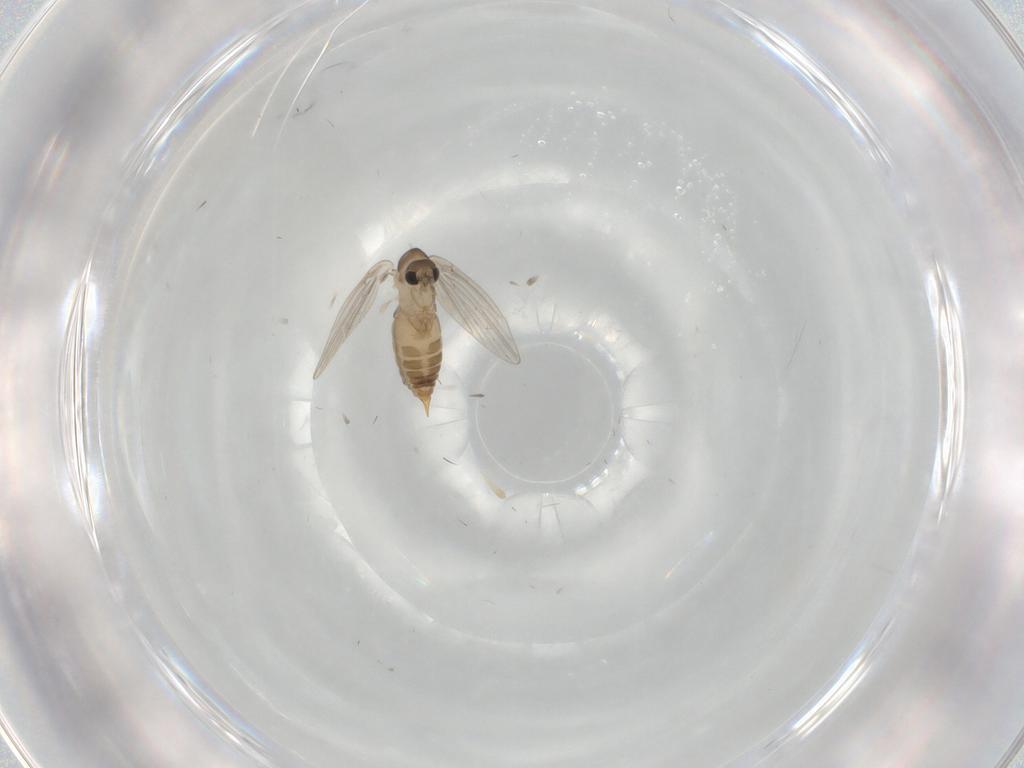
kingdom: Animalia
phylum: Arthropoda
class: Insecta
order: Diptera
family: Psychodidae
